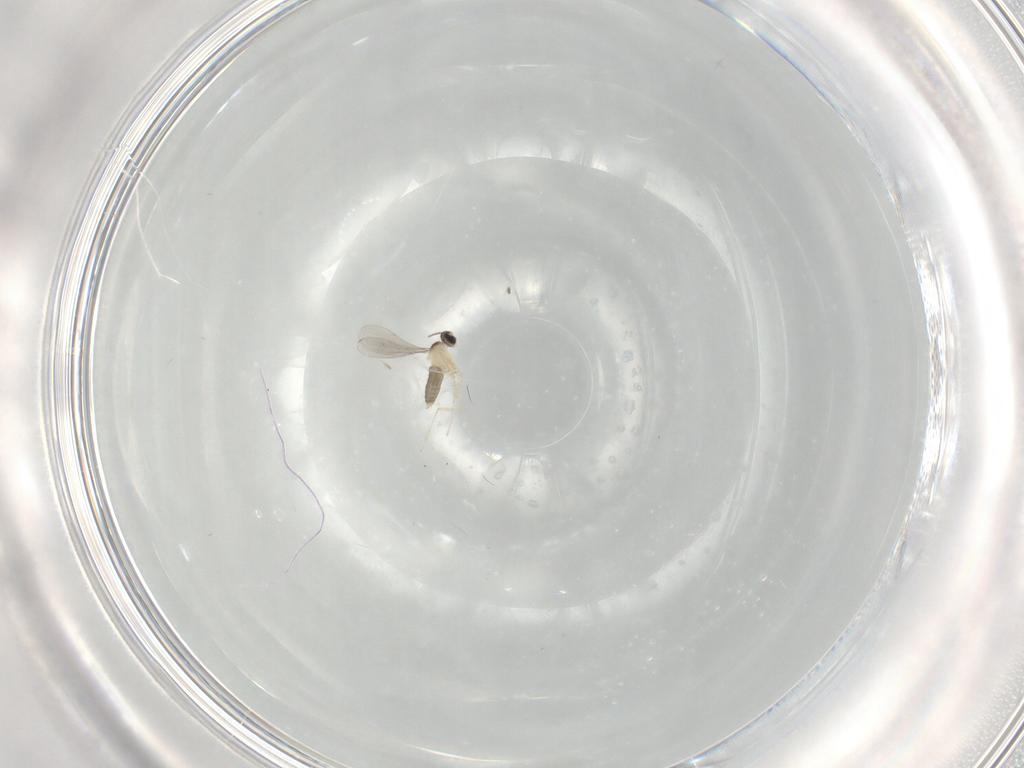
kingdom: Animalia
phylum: Arthropoda
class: Insecta
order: Diptera
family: Cecidomyiidae
